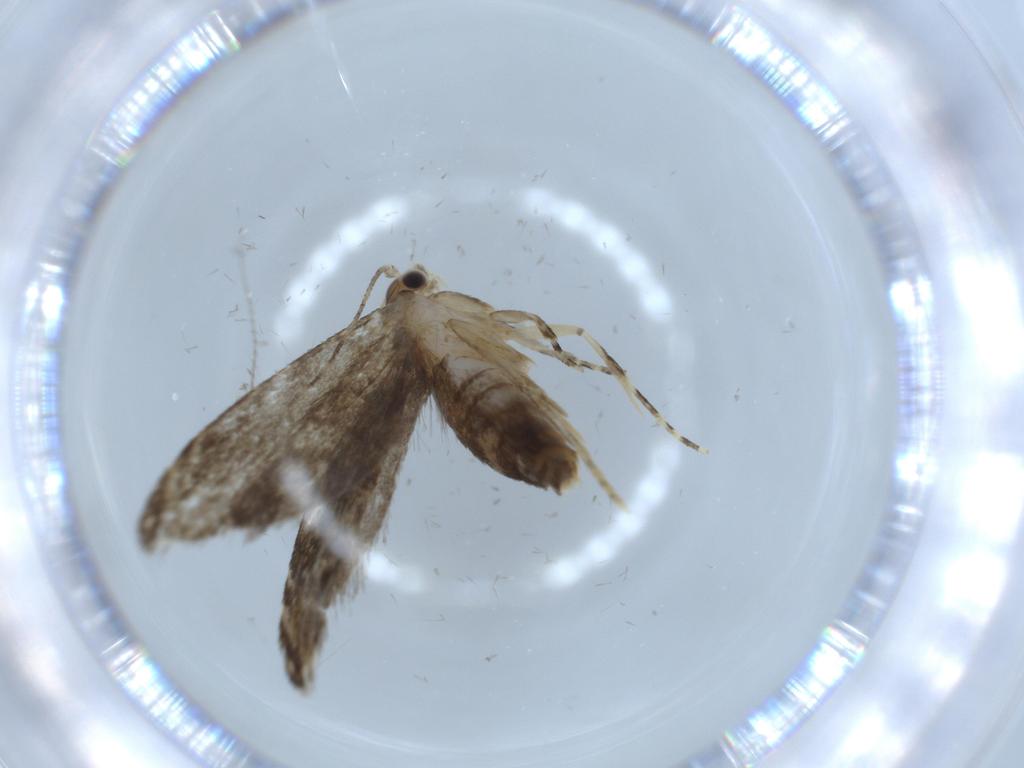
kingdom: Animalia
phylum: Arthropoda
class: Insecta
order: Lepidoptera
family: Tineidae
